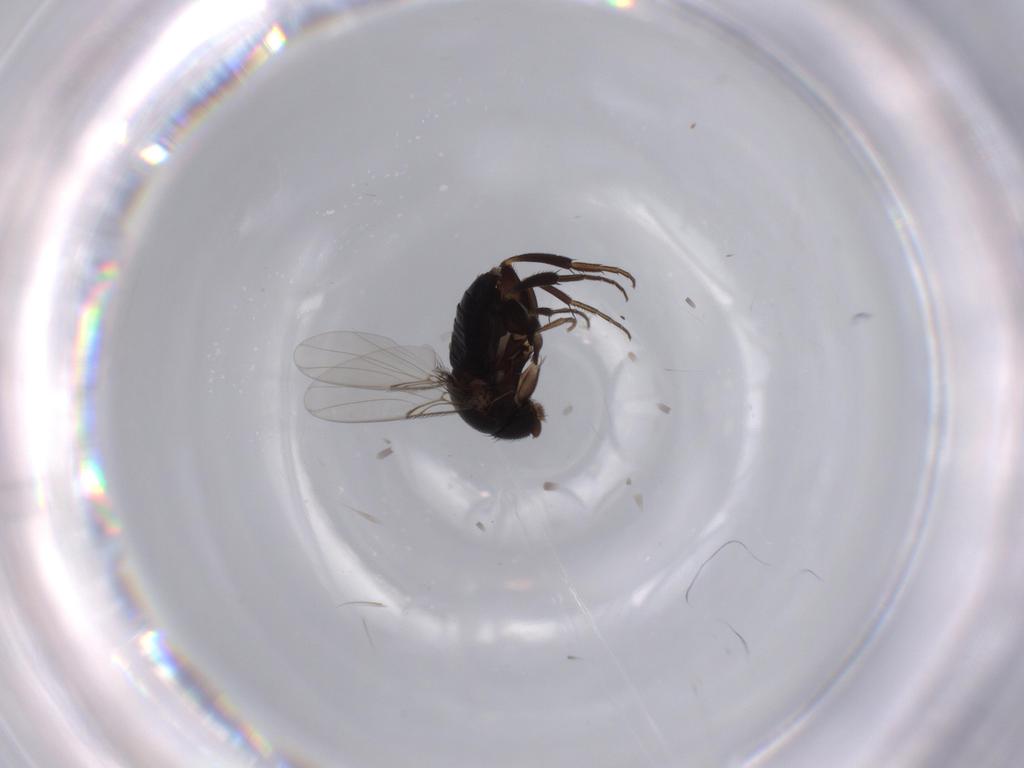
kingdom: Animalia
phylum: Arthropoda
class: Insecta
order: Diptera
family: Phoridae
